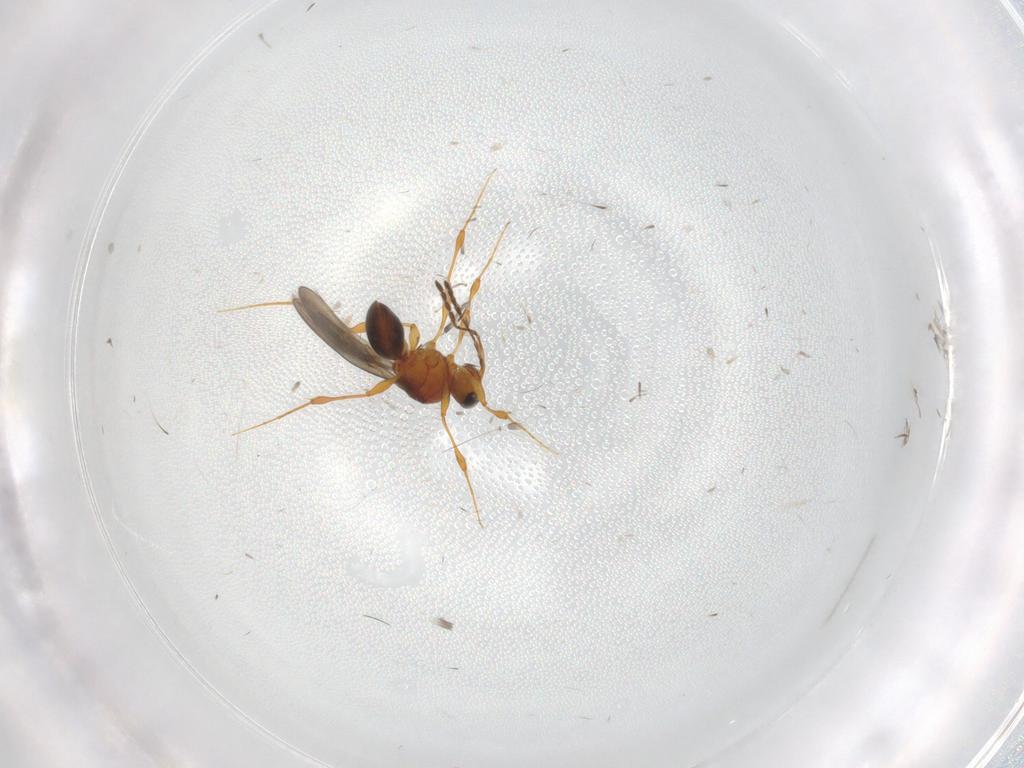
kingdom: Animalia
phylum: Arthropoda
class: Insecta
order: Hymenoptera
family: Platygastridae
